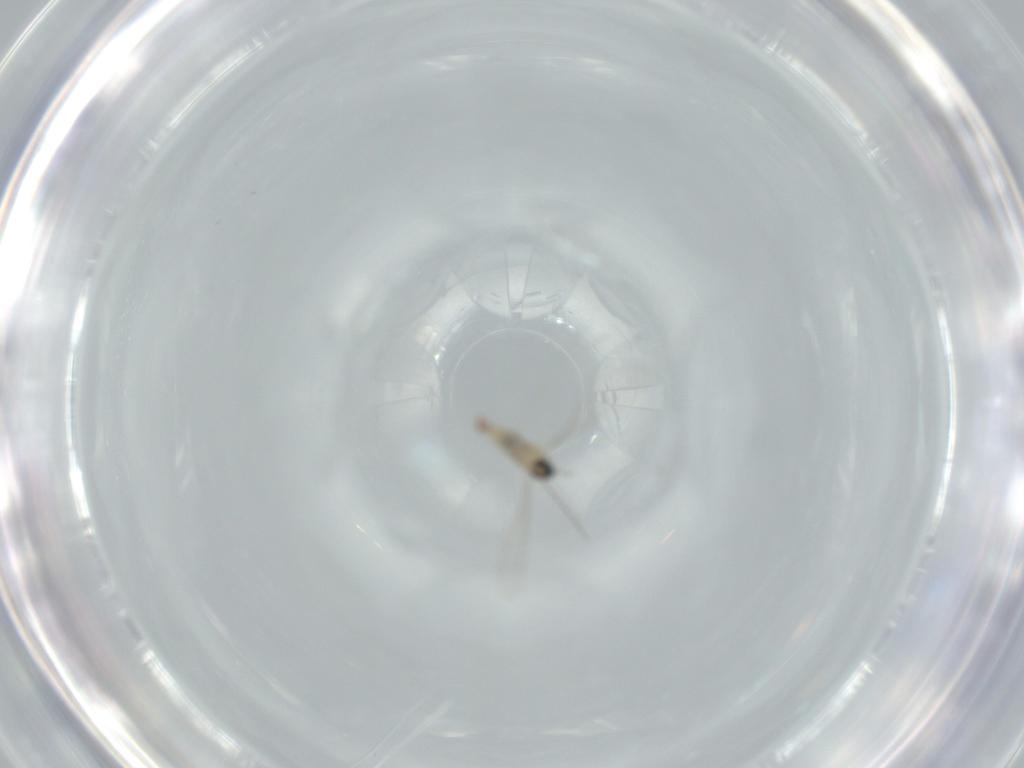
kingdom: Animalia
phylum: Arthropoda
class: Insecta
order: Diptera
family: Cecidomyiidae
